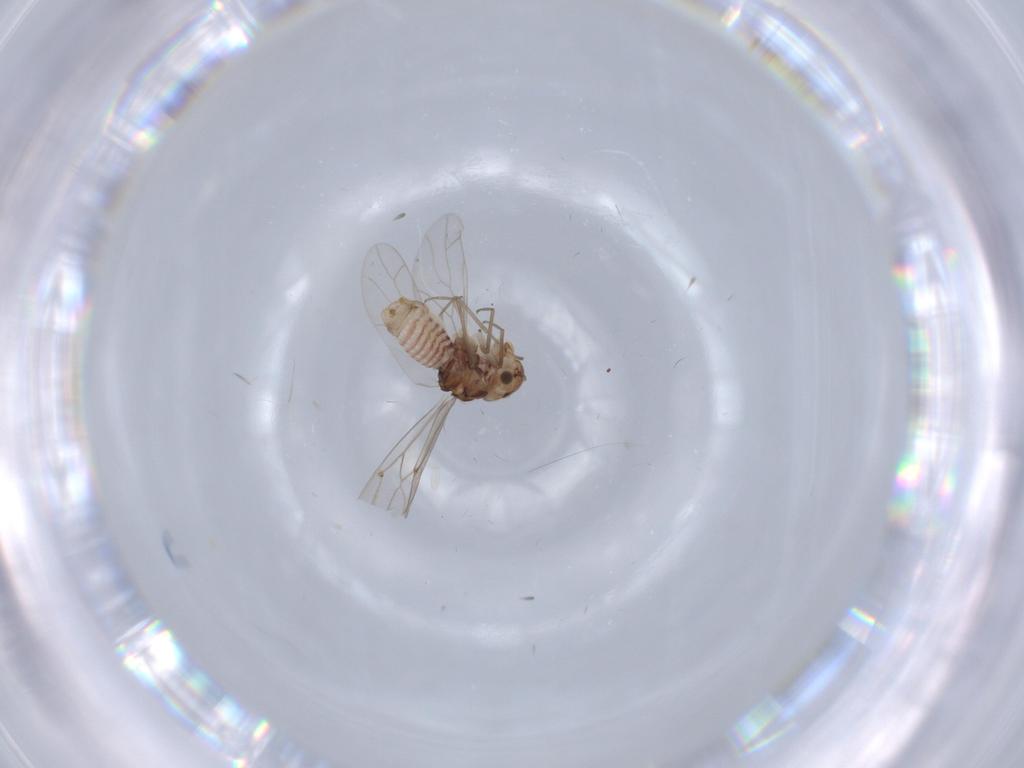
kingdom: Animalia
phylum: Arthropoda
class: Insecta
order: Psocodea
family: Lachesillidae
